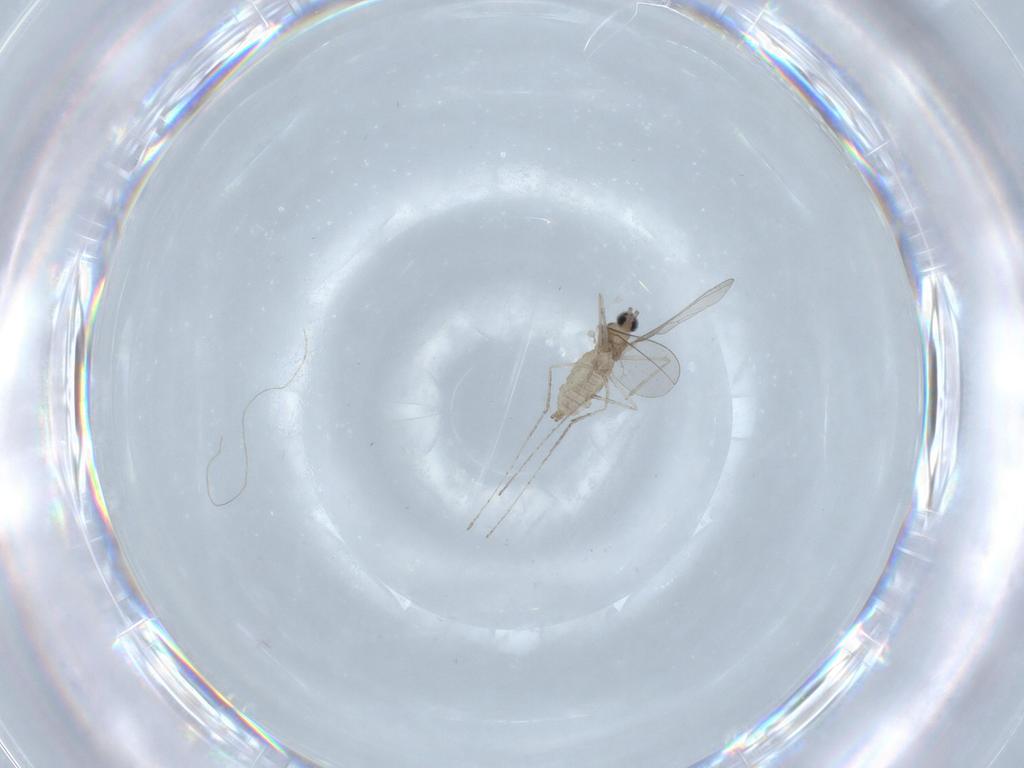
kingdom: Animalia
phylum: Arthropoda
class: Insecta
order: Diptera
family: Cecidomyiidae
